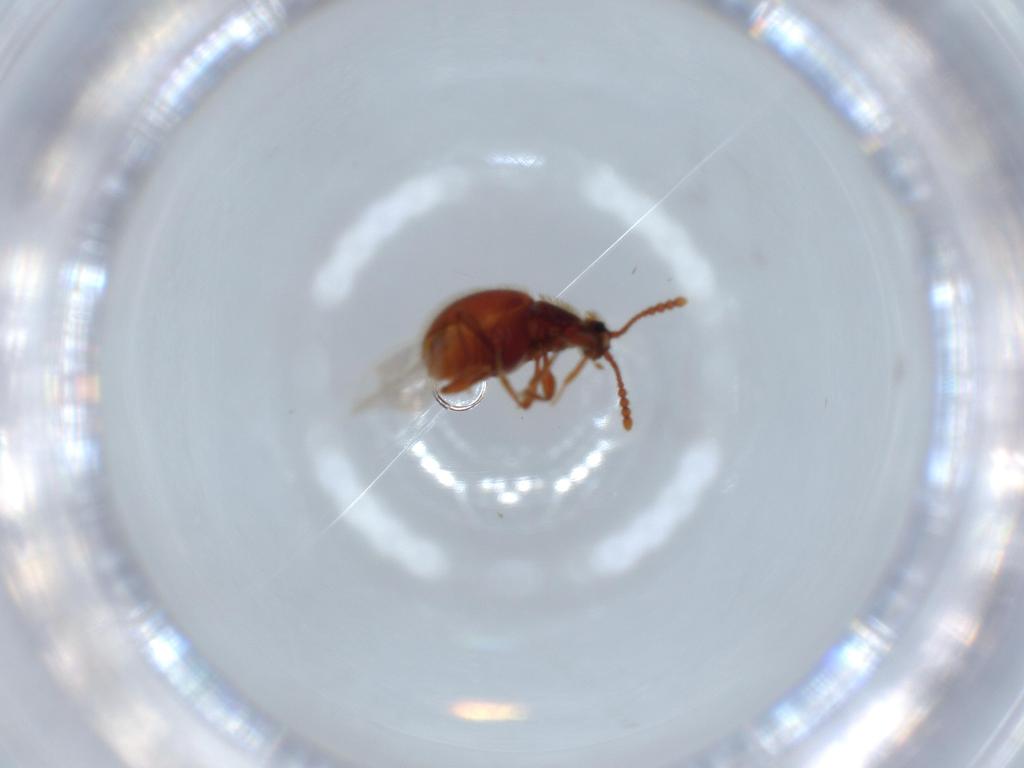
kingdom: Animalia
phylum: Arthropoda
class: Insecta
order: Coleoptera
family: Staphylinidae
